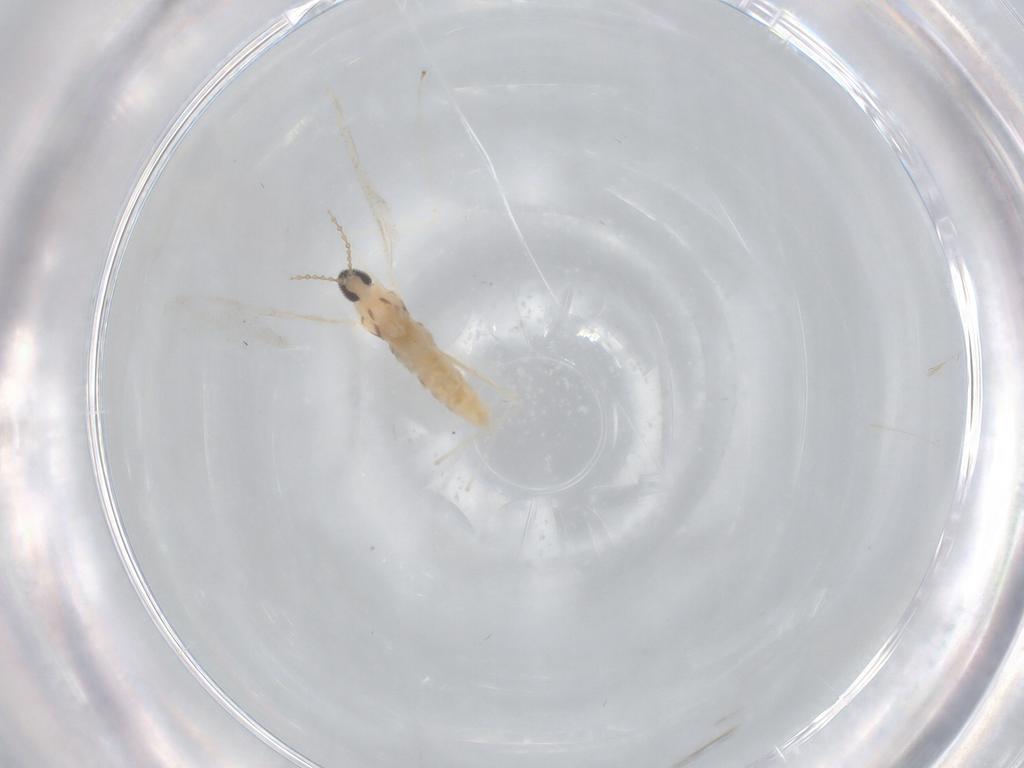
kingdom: Animalia
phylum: Arthropoda
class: Insecta
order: Diptera
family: Cecidomyiidae
